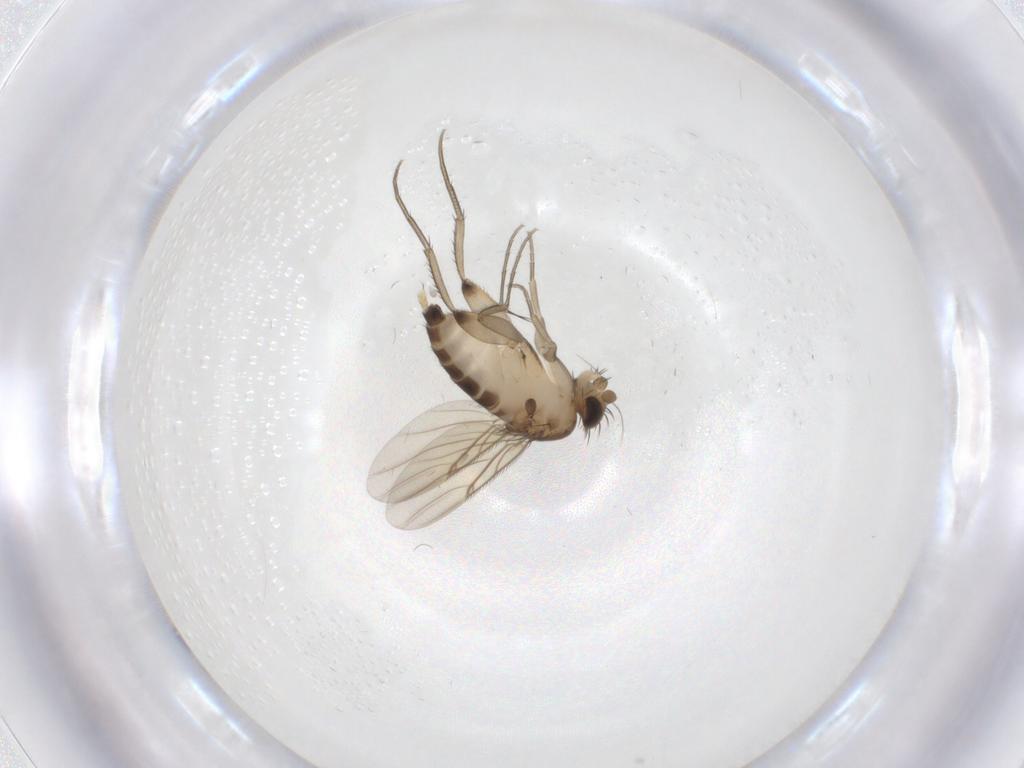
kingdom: Animalia
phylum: Arthropoda
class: Insecta
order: Diptera
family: Phoridae
